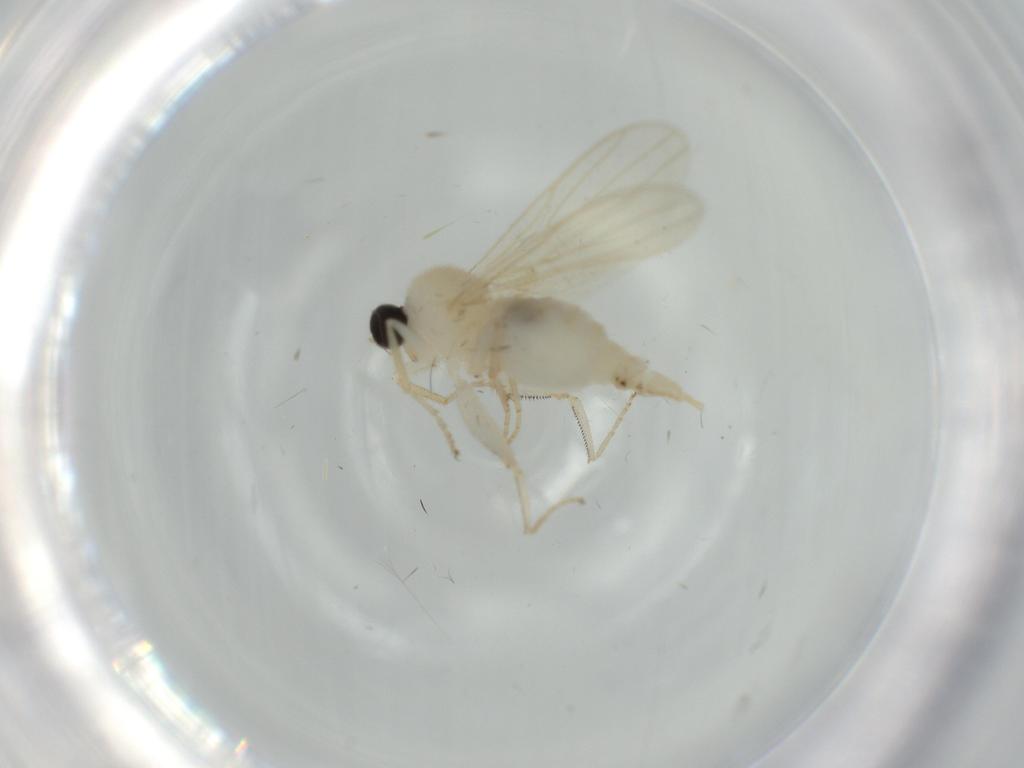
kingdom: Animalia
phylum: Arthropoda
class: Insecta
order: Diptera
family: Hybotidae
